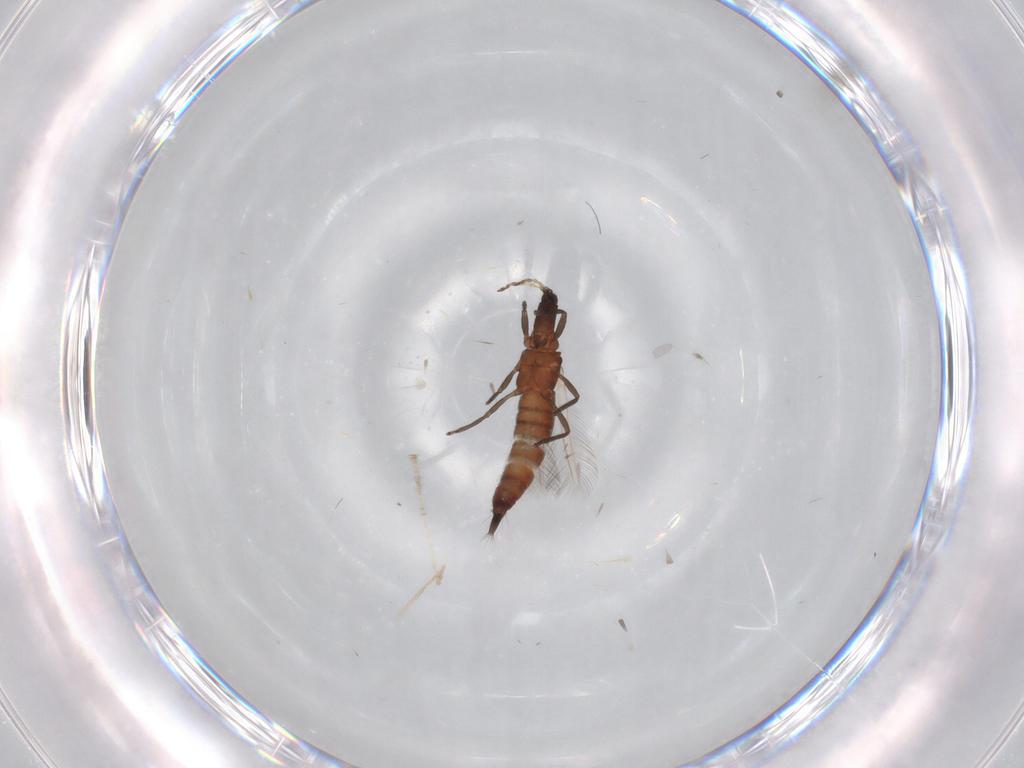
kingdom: Animalia
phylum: Arthropoda
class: Insecta
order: Thysanoptera
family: Phlaeothripidae
